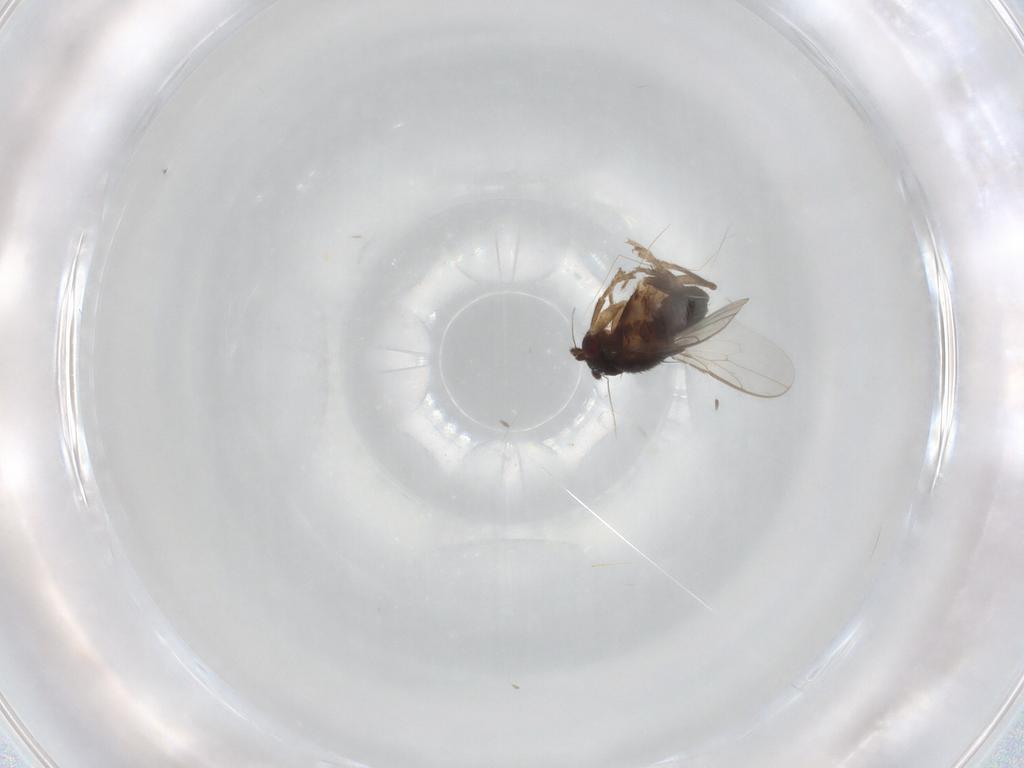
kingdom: Animalia
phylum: Arthropoda
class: Insecta
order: Diptera
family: Sphaeroceridae
